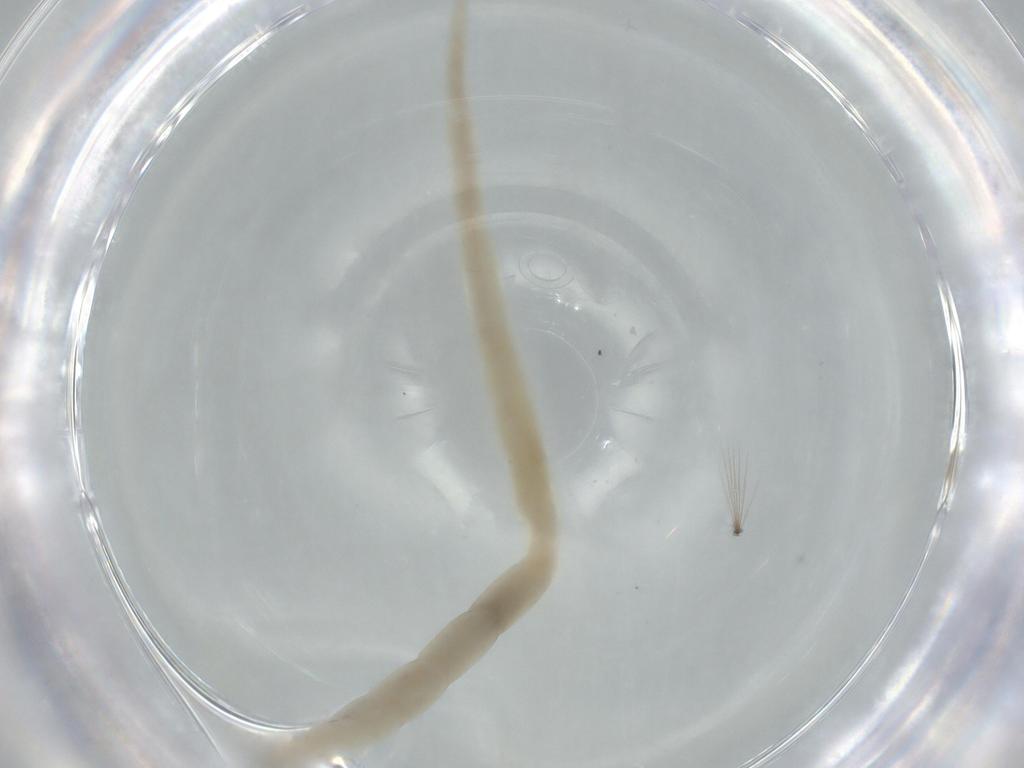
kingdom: Animalia
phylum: Arthropoda
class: Insecta
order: Diptera
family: Ceratopogonidae
